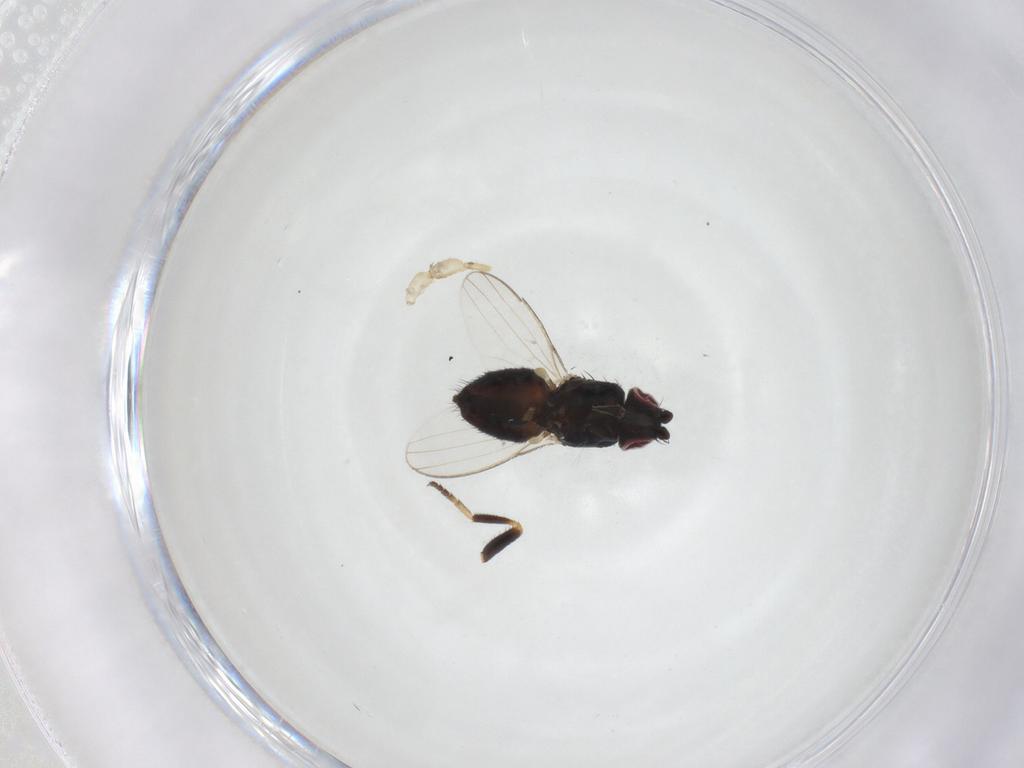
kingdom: Animalia
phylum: Arthropoda
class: Insecta
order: Diptera
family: Milichiidae
